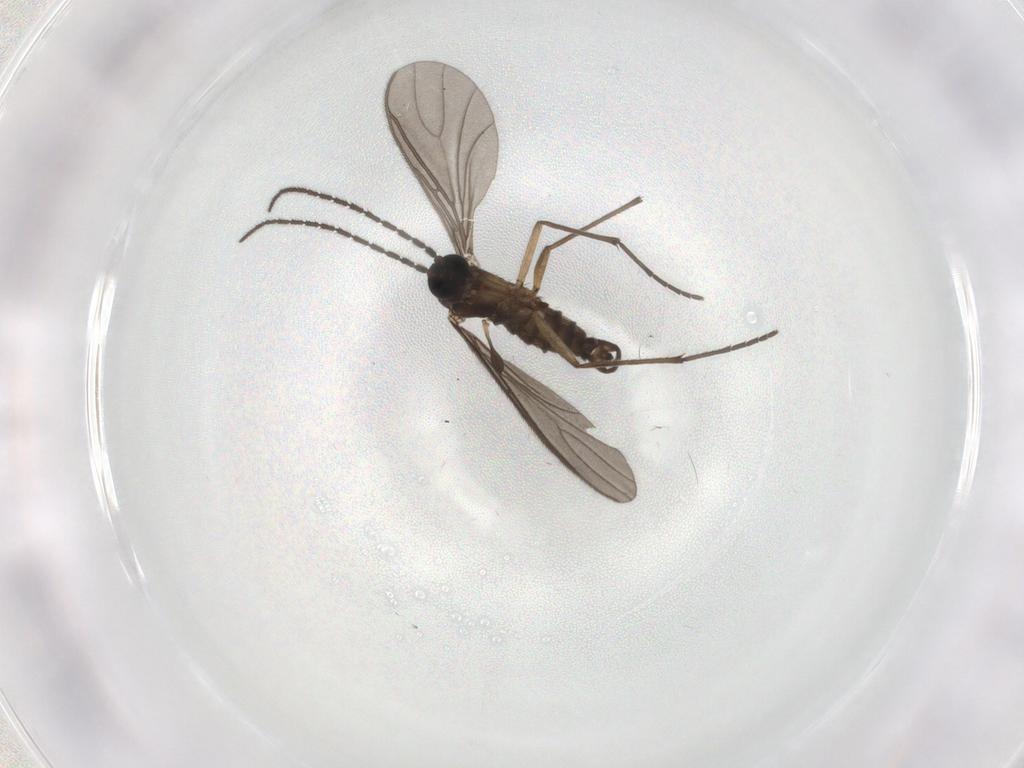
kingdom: Animalia
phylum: Arthropoda
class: Insecta
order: Diptera
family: Sciaridae
